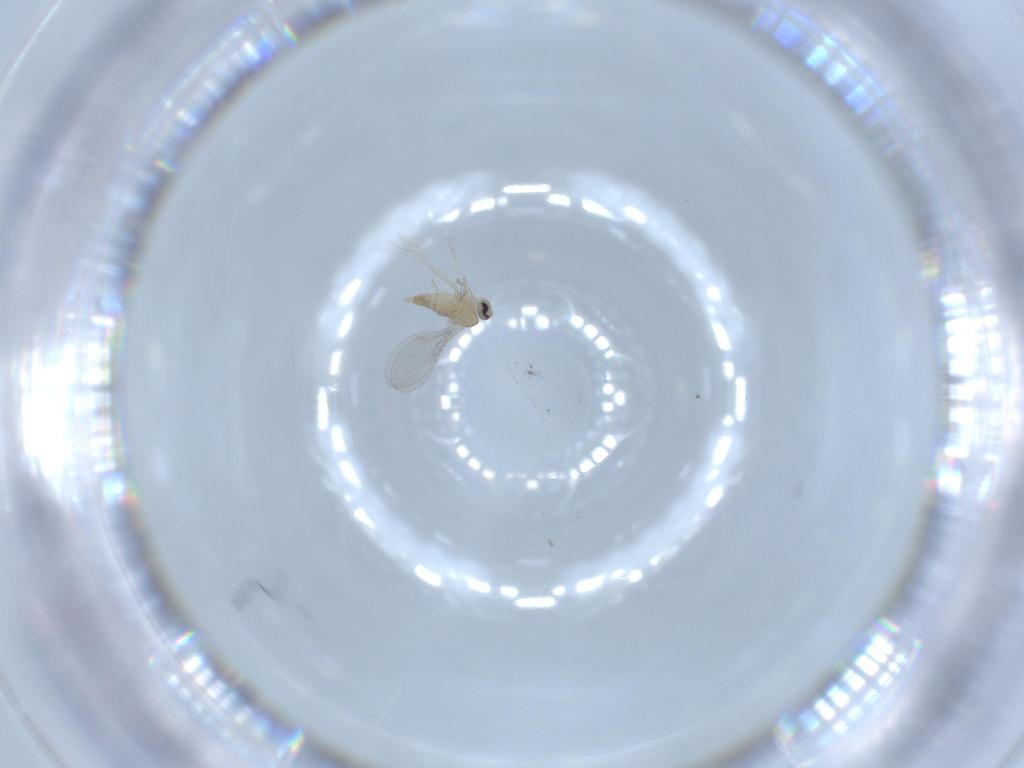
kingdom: Animalia
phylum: Arthropoda
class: Insecta
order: Diptera
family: Cecidomyiidae
